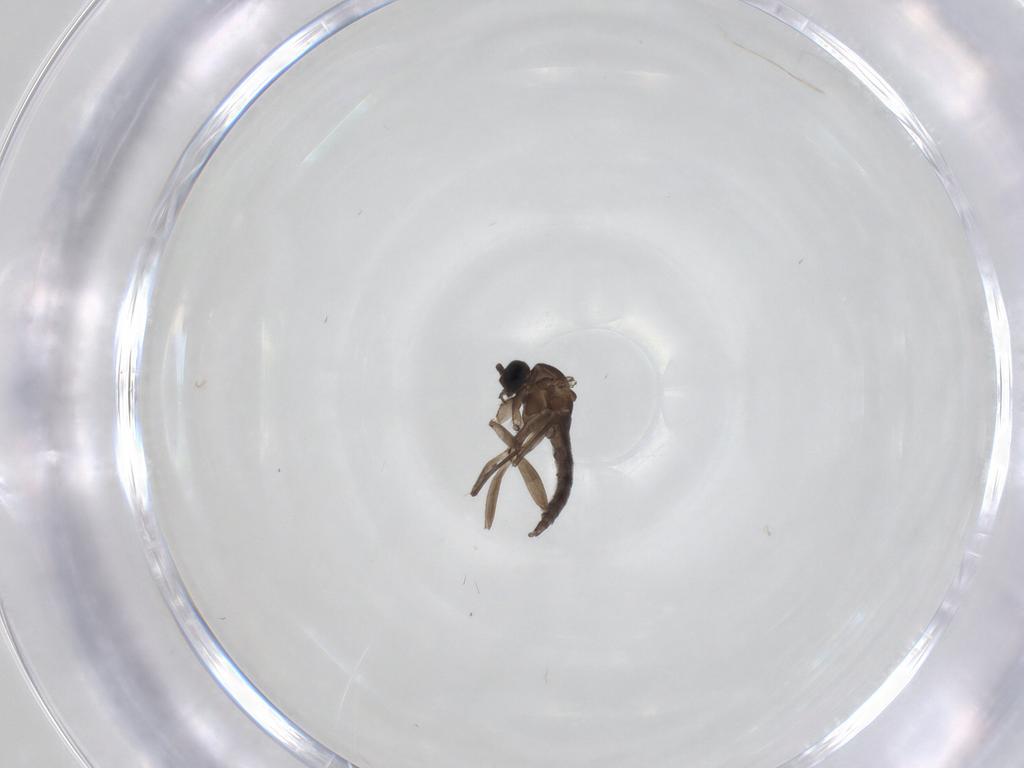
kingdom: Animalia
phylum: Arthropoda
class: Insecta
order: Diptera
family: Sciaridae
